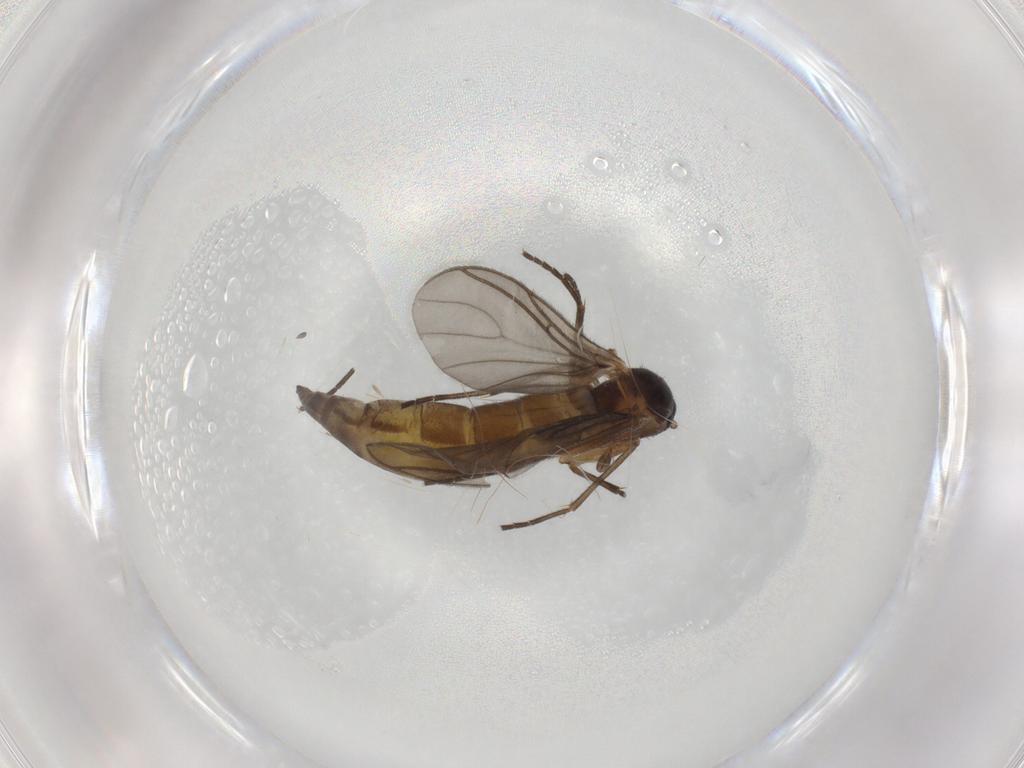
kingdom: Animalia
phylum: Arthropoda
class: Insecta
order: Diptera
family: Sciaridae
